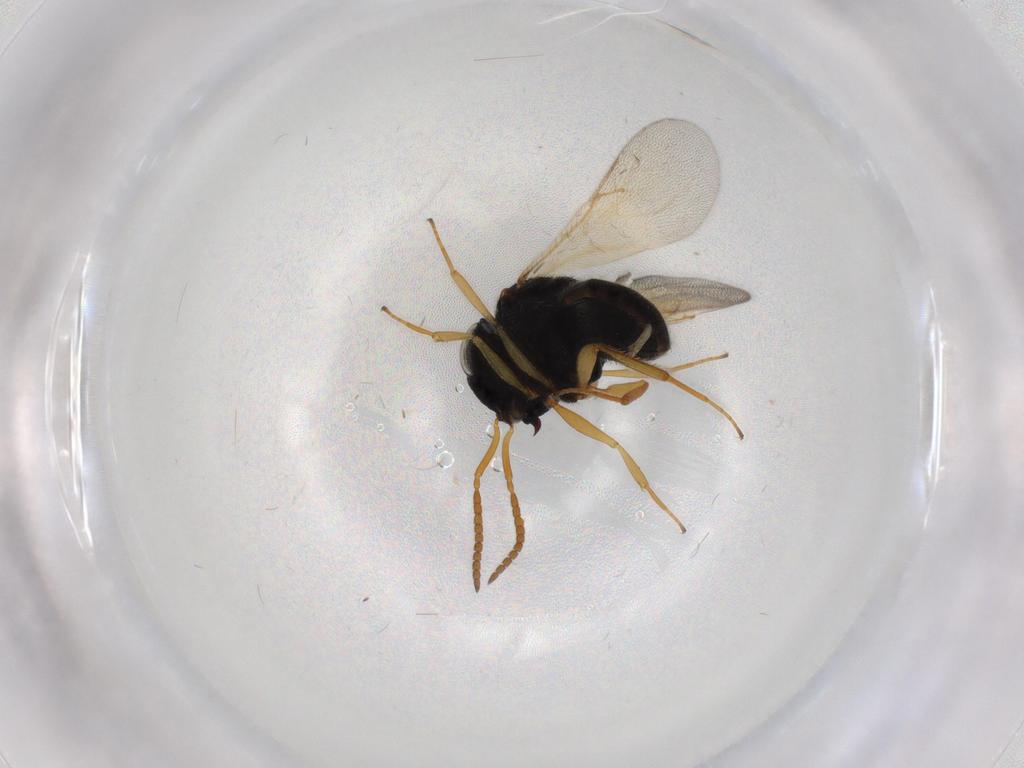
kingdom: Animalia
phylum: Arthropoda
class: Insecta
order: Hymenoptera
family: Scelionidae
